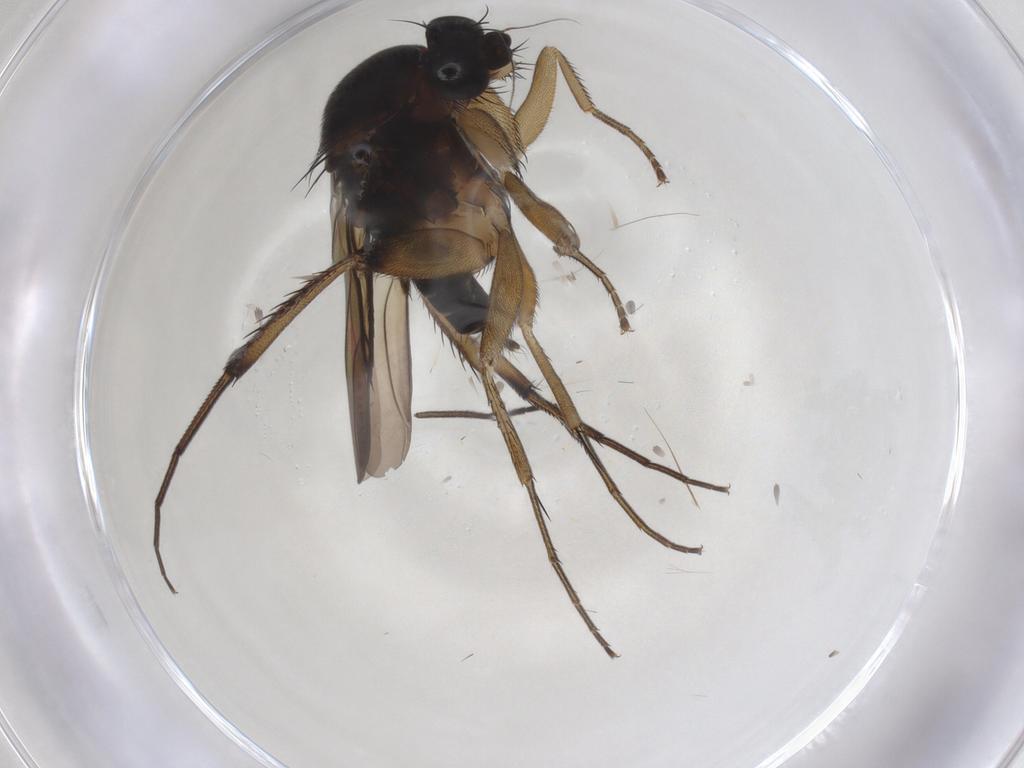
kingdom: Animalia
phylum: Arthropoda
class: Insecta
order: Diptera
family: Phoridae
